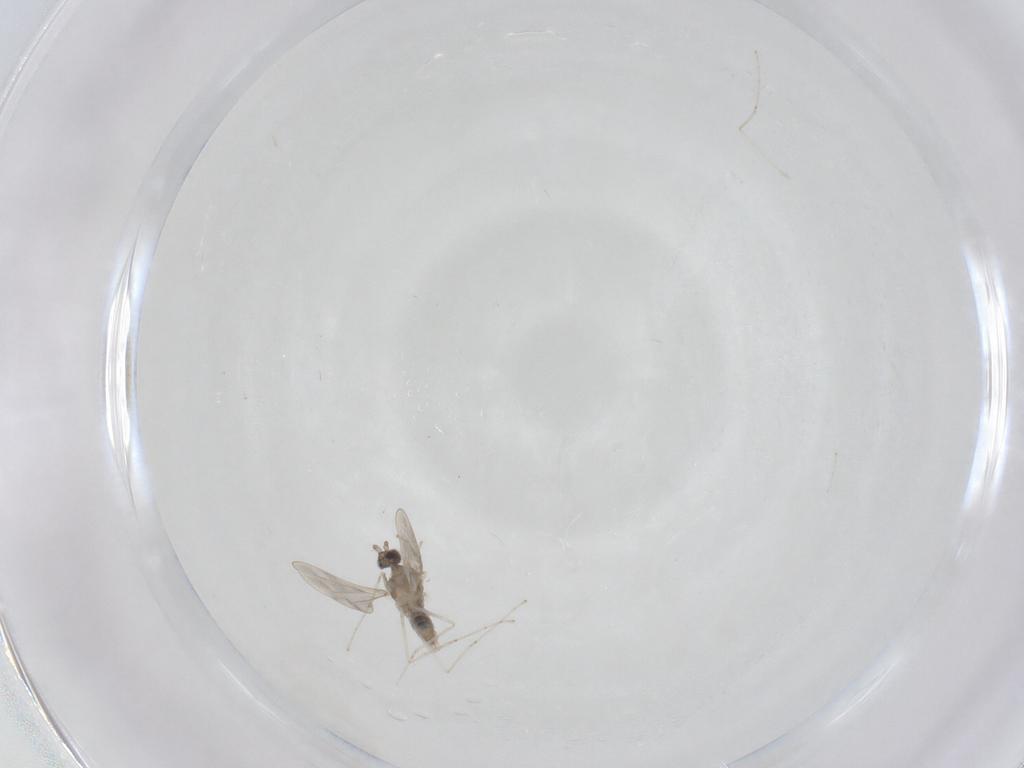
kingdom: Animalia
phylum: Arthropoda
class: Insecta
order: Diptera
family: Cecidomyiidae
